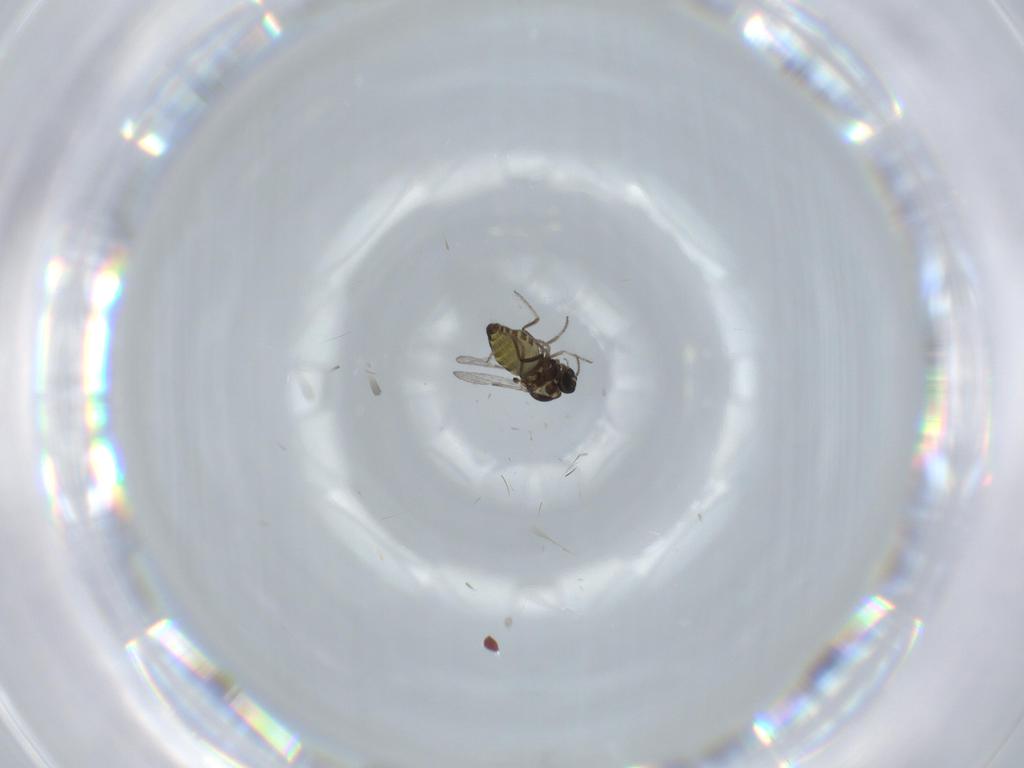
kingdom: Animalia
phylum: Arthropoda
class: Insecta
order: Diptera
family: Ceratopogonidae
